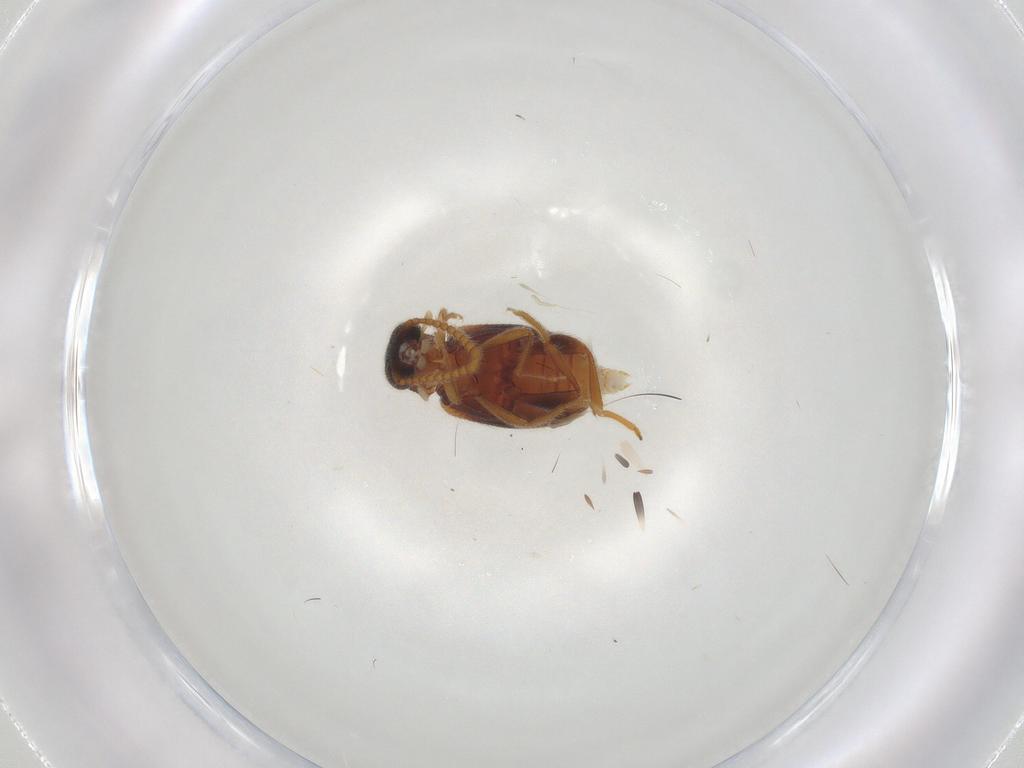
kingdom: Animalia
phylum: Arthropoda
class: Insecta
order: Coleoptera
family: Aderidae
